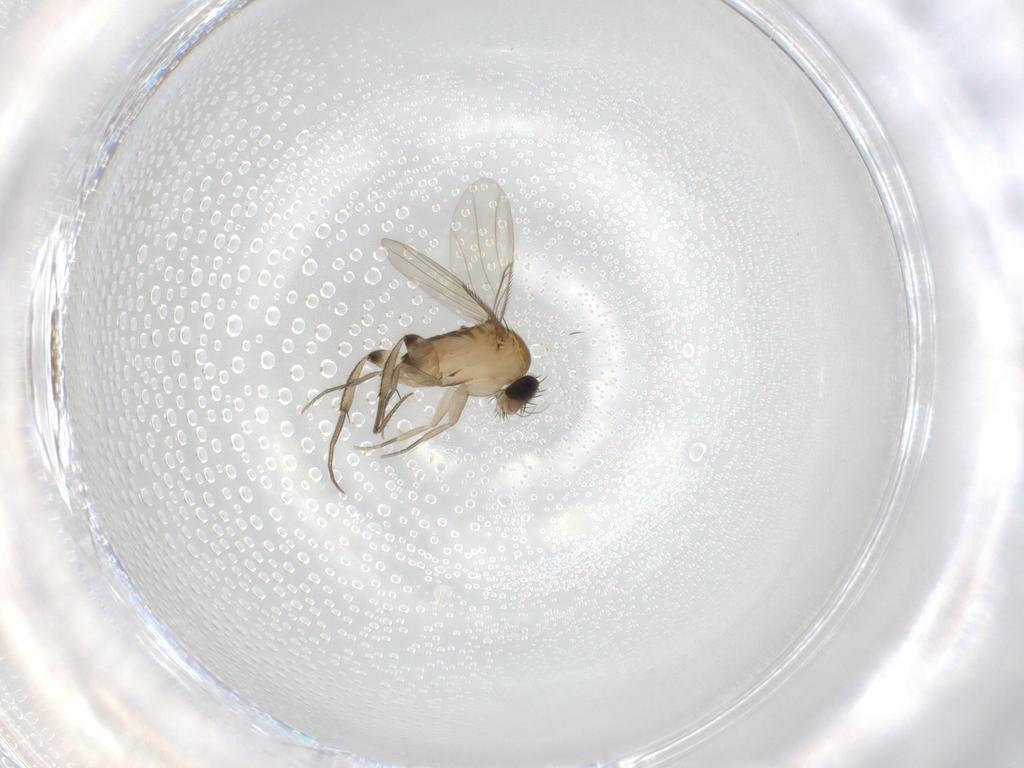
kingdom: Animalia
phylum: Arthropoda
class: Insecta
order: Diptera
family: Phoridae
